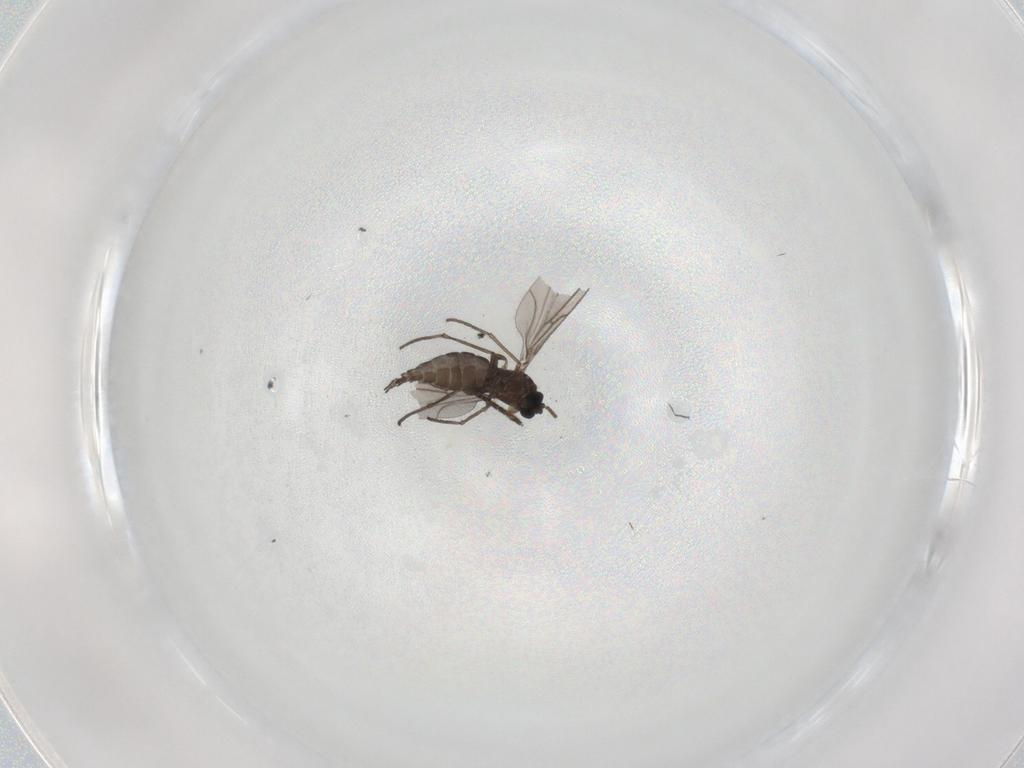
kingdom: Animalia
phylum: Arthropoda
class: Insecta
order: Diptera
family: Sciaridae
